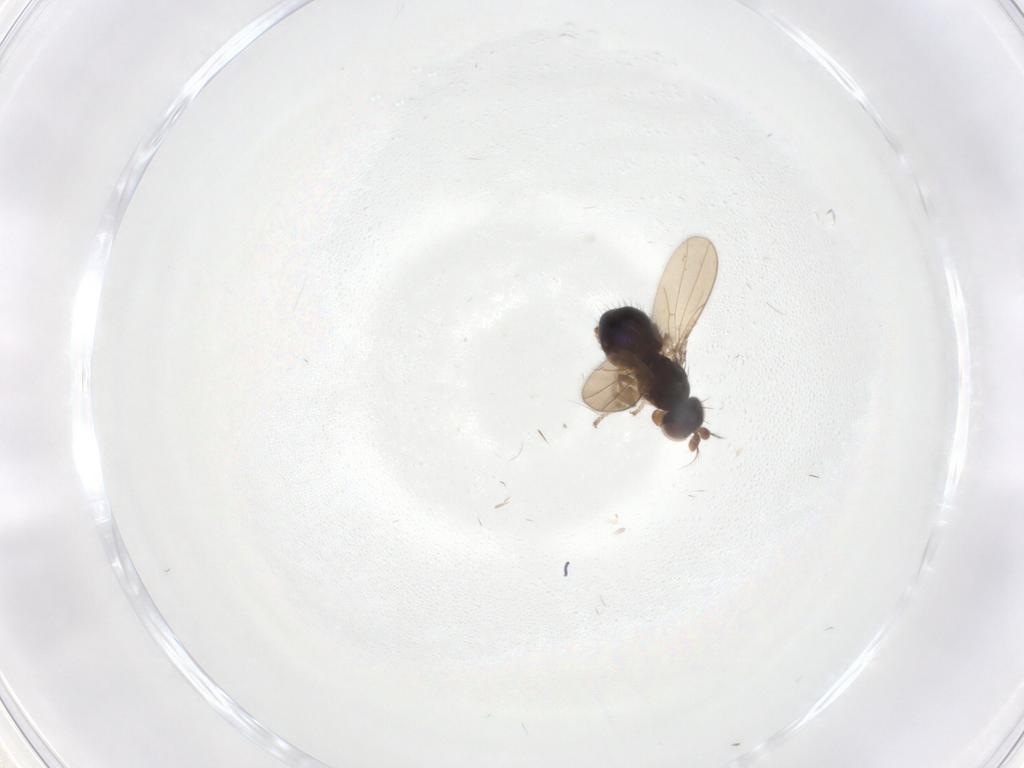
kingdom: Animalia
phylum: Arthropoda
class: Insecta
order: Diptera
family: Ephydridae
